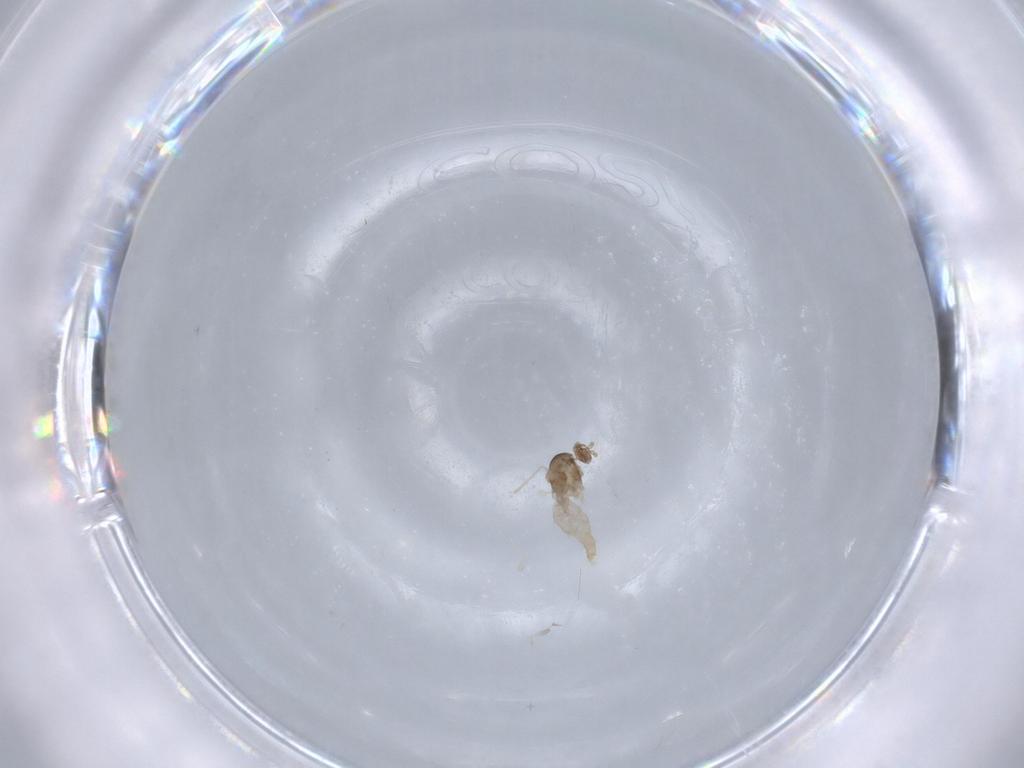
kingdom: Animalia
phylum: Arthropoda
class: Insecta
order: Diptera
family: Cecidomyiidae
